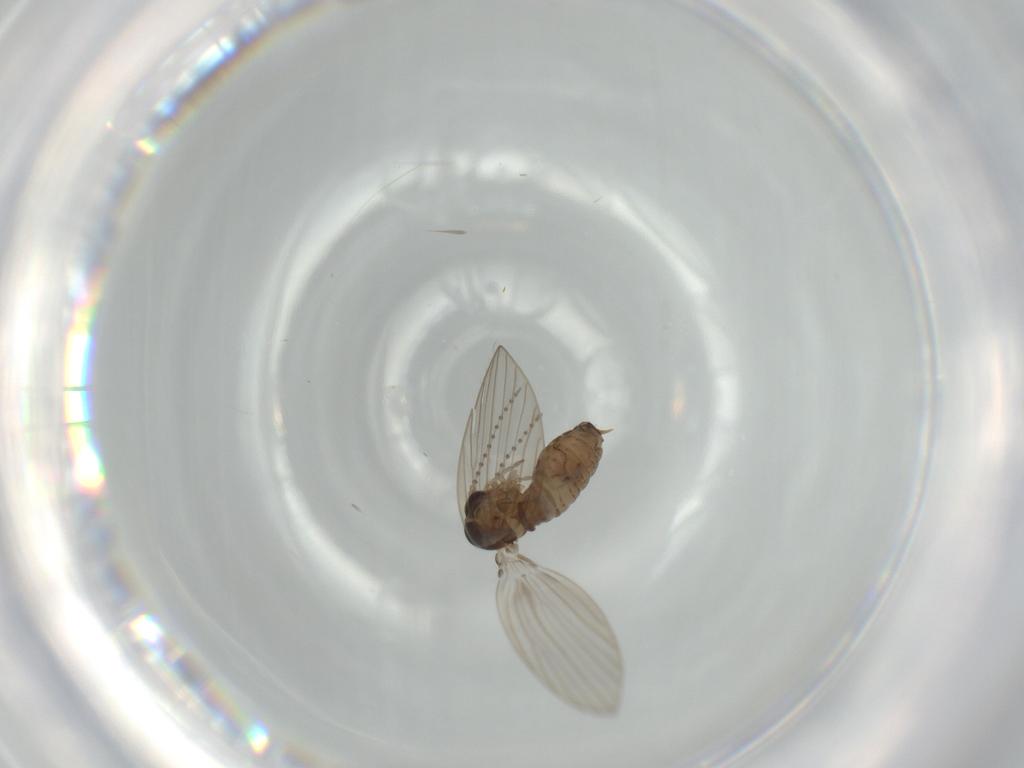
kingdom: Animalia
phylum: Arthropoda
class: Insecta
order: Diptera
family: Psychodidae
